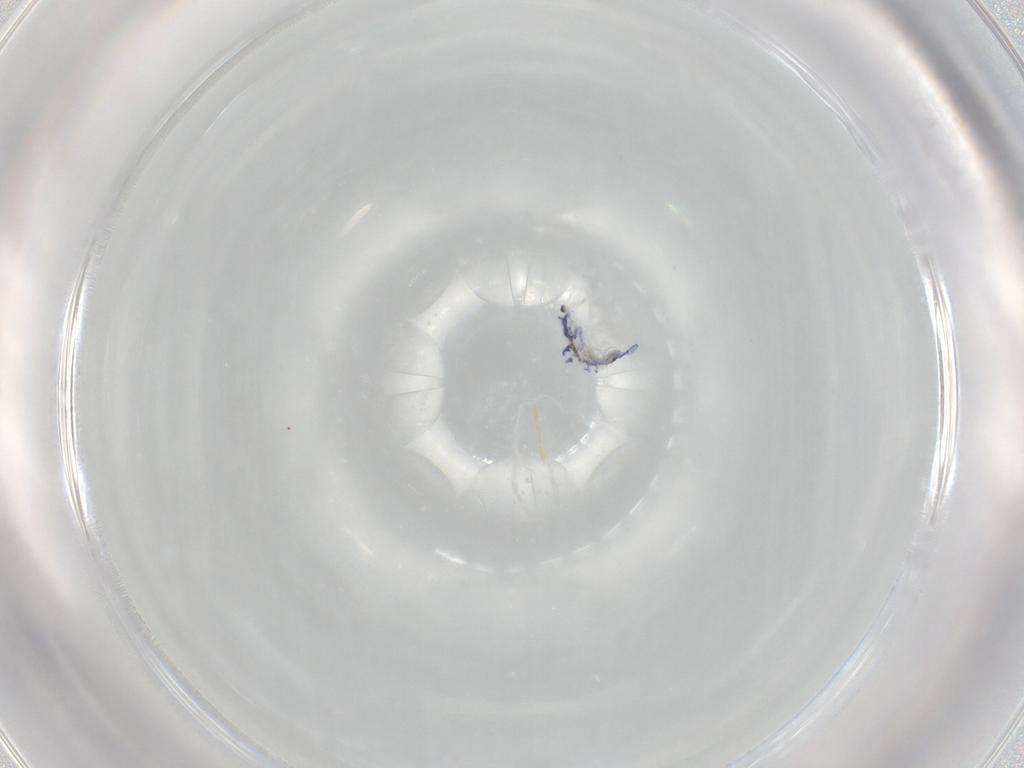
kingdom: Animalia
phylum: Arthropoda
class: Collembola
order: Entomobryomorpha
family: Entomobryidae
